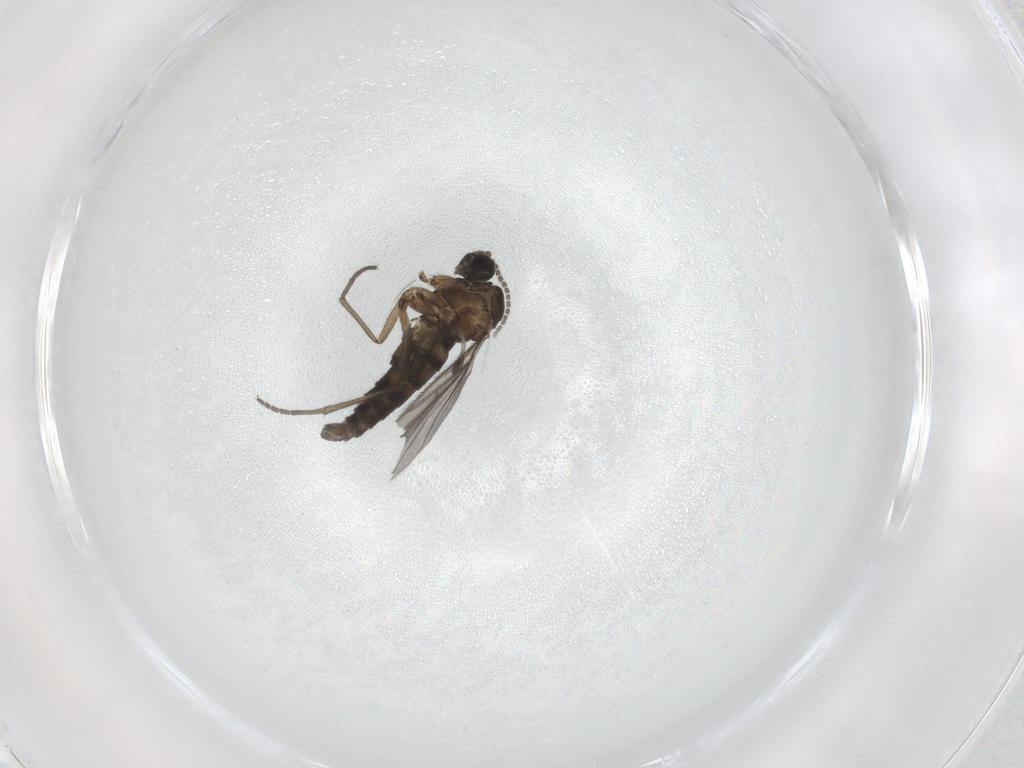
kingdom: Animalia
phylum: Arthropoda
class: Insecta
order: Diptera
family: Sciaridae
